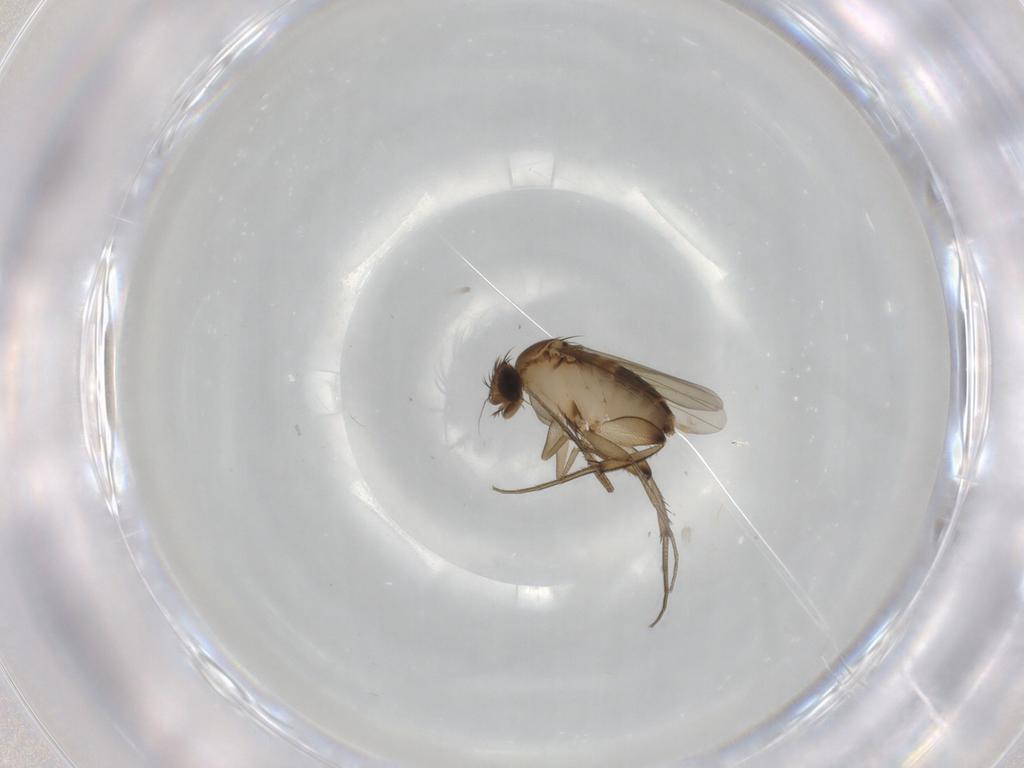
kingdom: Animalia
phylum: Arthropoda
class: Insecta
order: Diptera
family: Phoridae
